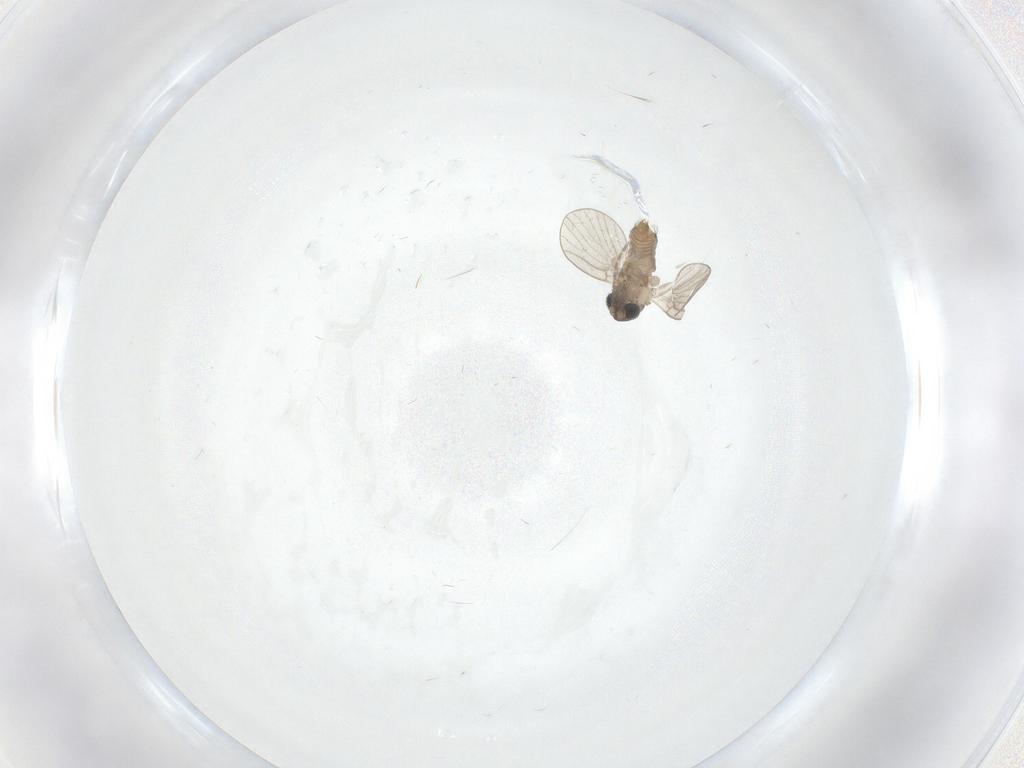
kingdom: Animalia
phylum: Arthropoda
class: Insecta
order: Diptera
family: Psychodidae
